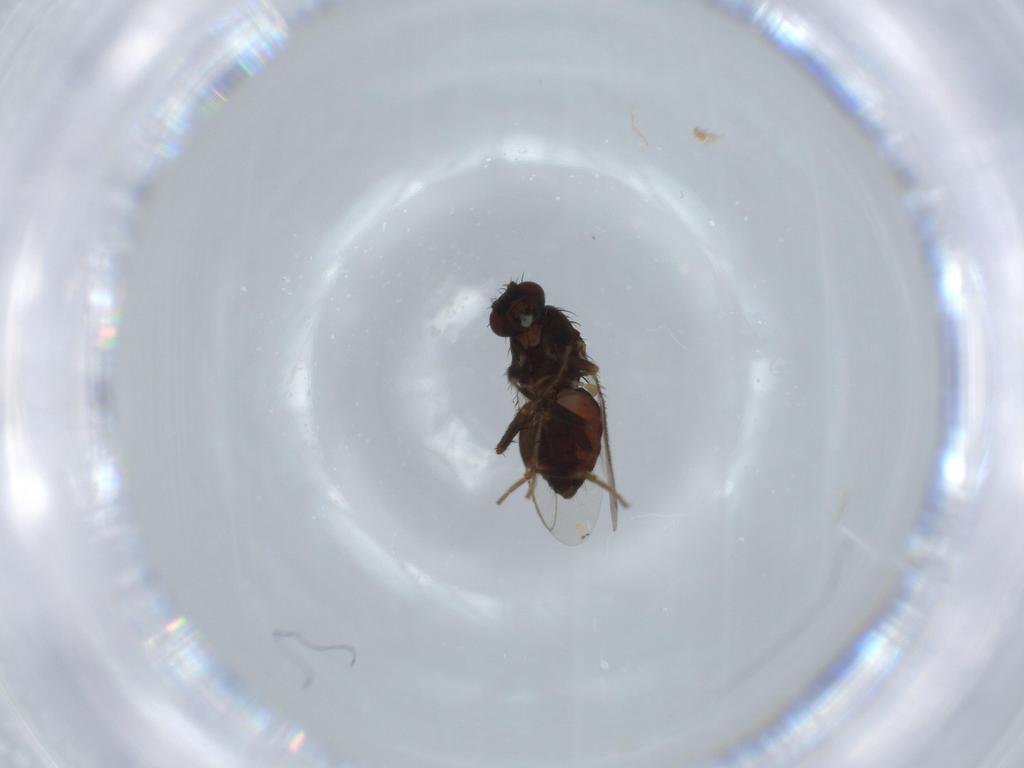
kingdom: Animalia
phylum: Arthropoda
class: Insecta
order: Diptera
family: Sphaeroceridae
